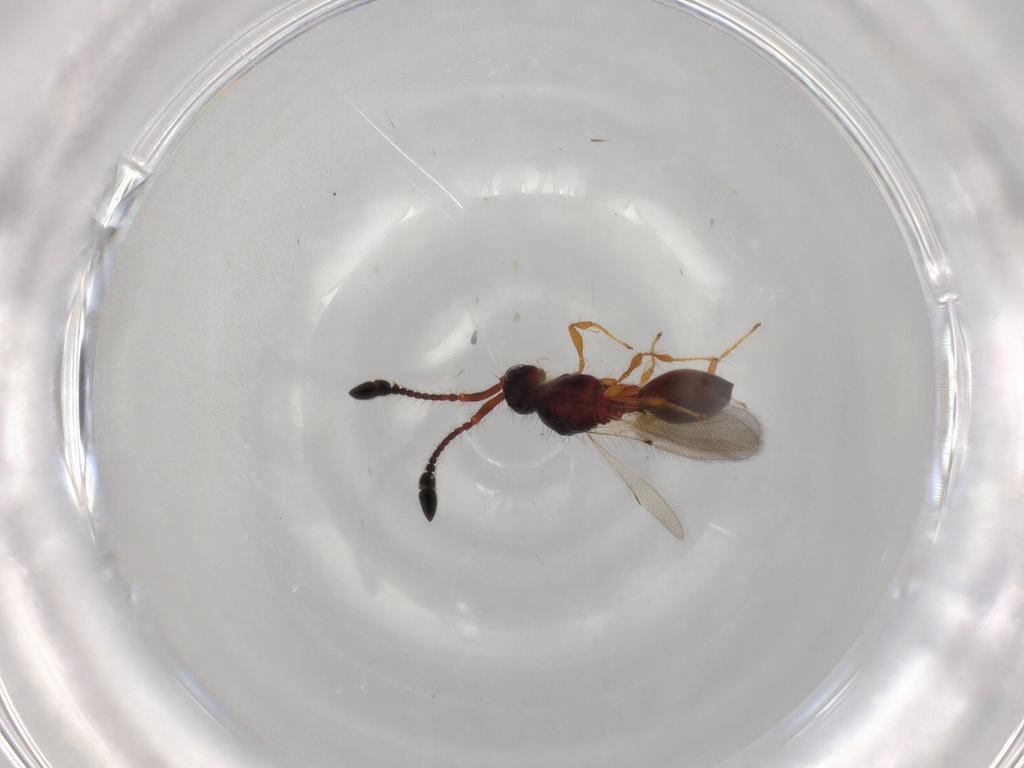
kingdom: Animalia
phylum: Arthropoda
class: Insecta
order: Hymenoptera
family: Diapriidae
